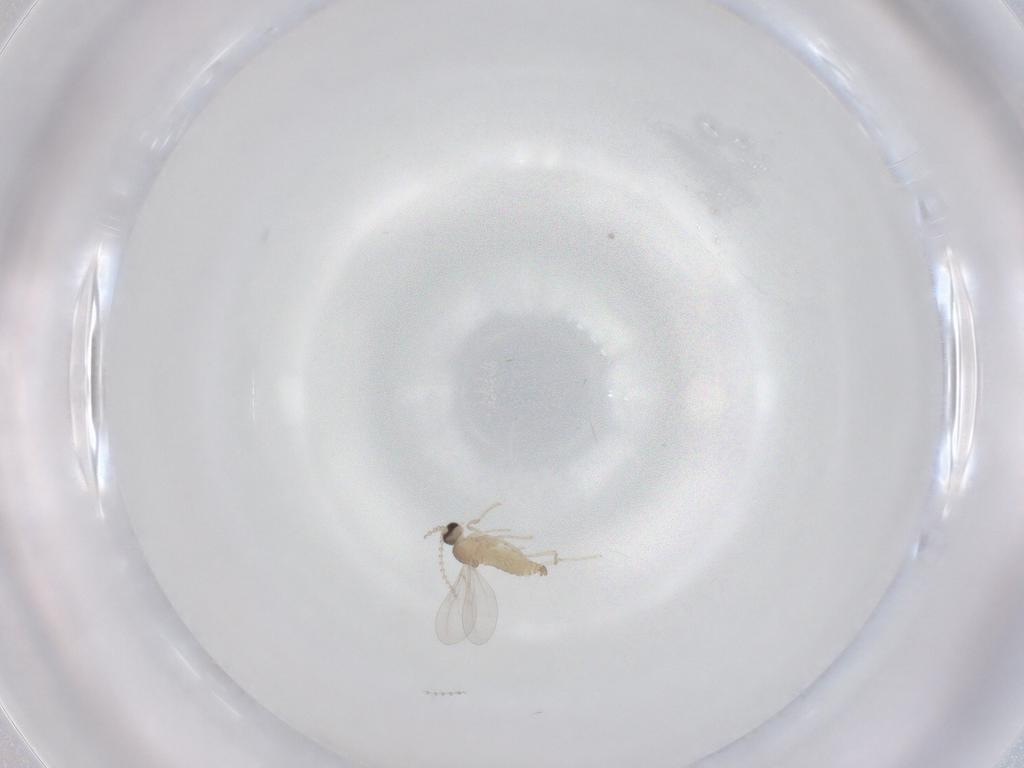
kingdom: Animalia
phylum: Arthropoda
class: Insecta
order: Diptera
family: Cecidomyiidae
